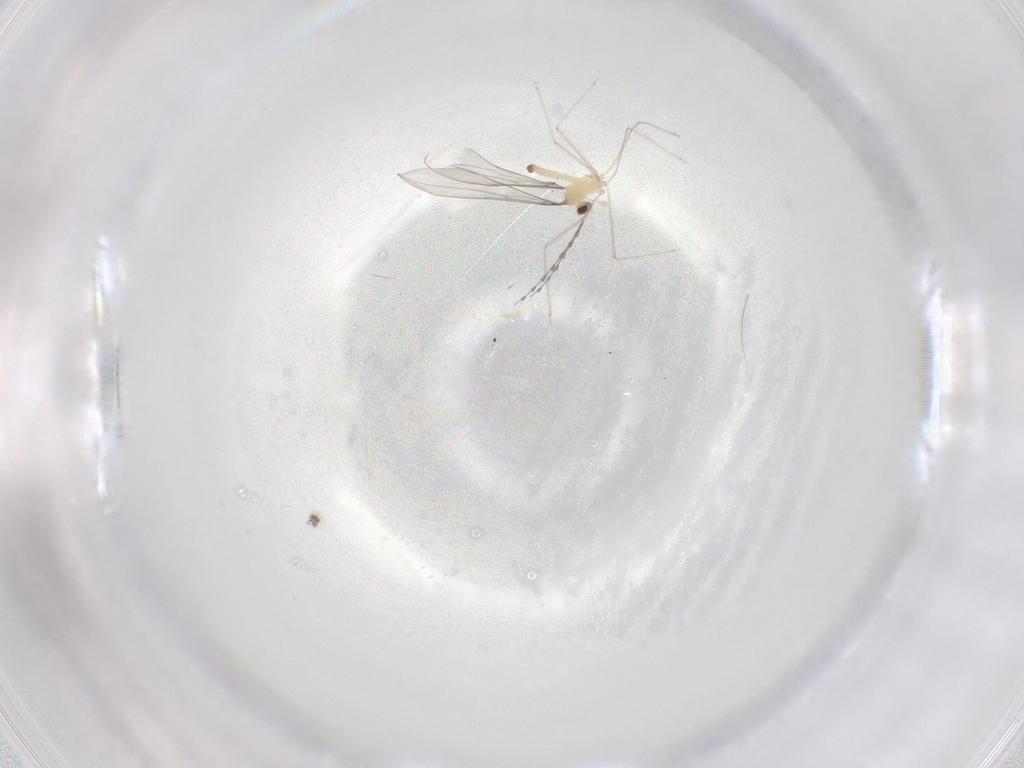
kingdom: Animalia
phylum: Arthropoda
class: Insecta
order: Diptera
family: Cecidomyiidae
